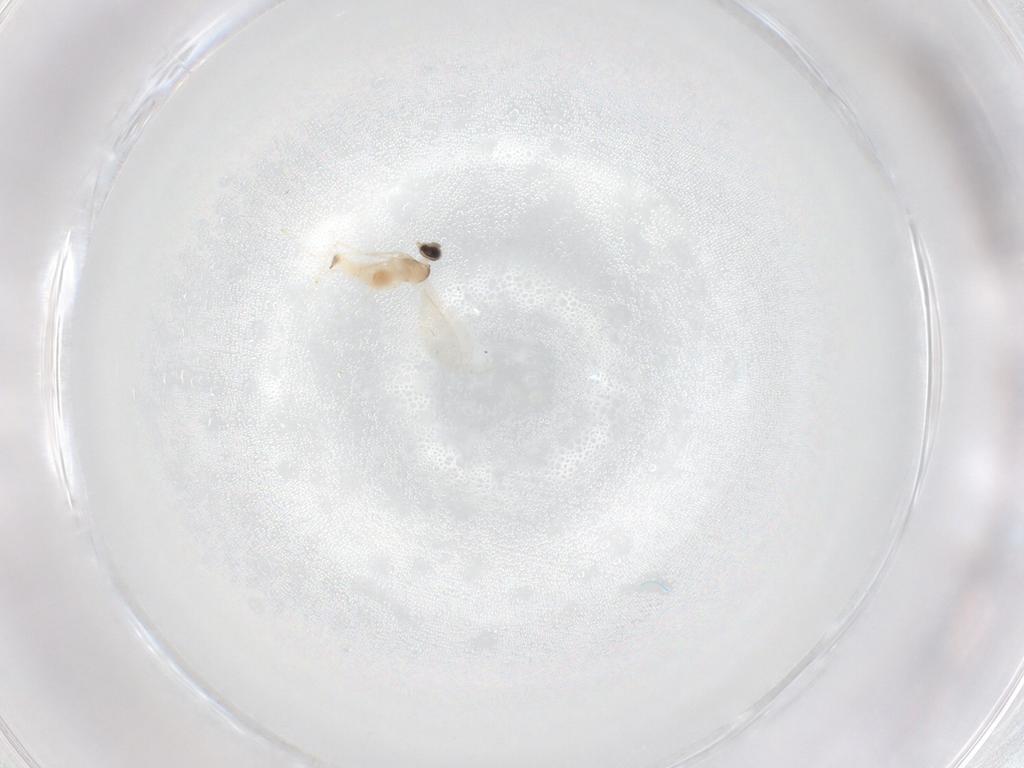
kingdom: Animalia
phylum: Arthropoda
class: Insecta
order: Diptera
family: Cecidomyiidae
